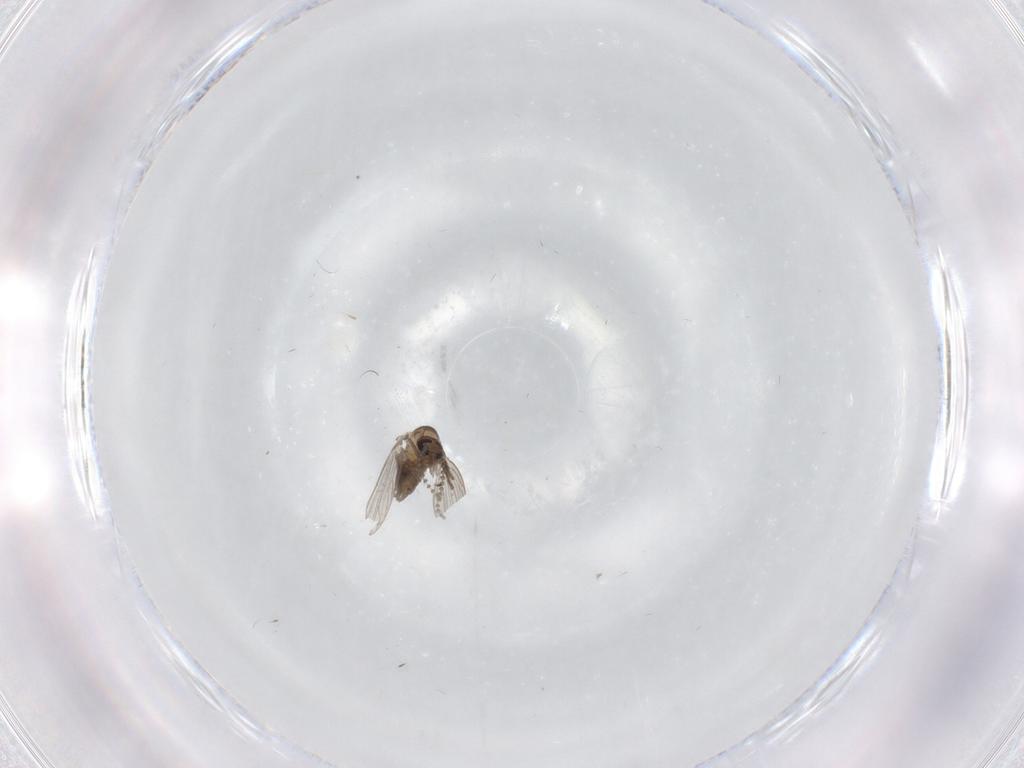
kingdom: Animalia
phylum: Arthropoda
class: Insecta
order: Diptera
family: Psychodidae
